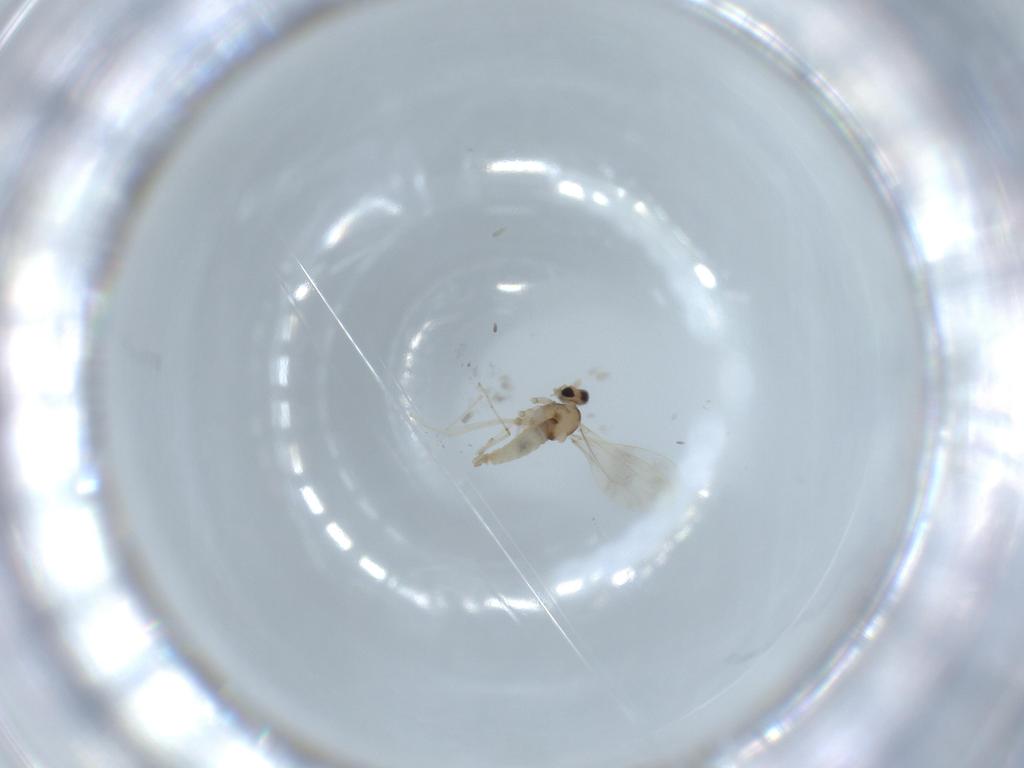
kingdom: Animalia
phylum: Arthropoda
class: Insecta
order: Diptera
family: Cecidomyiidae
